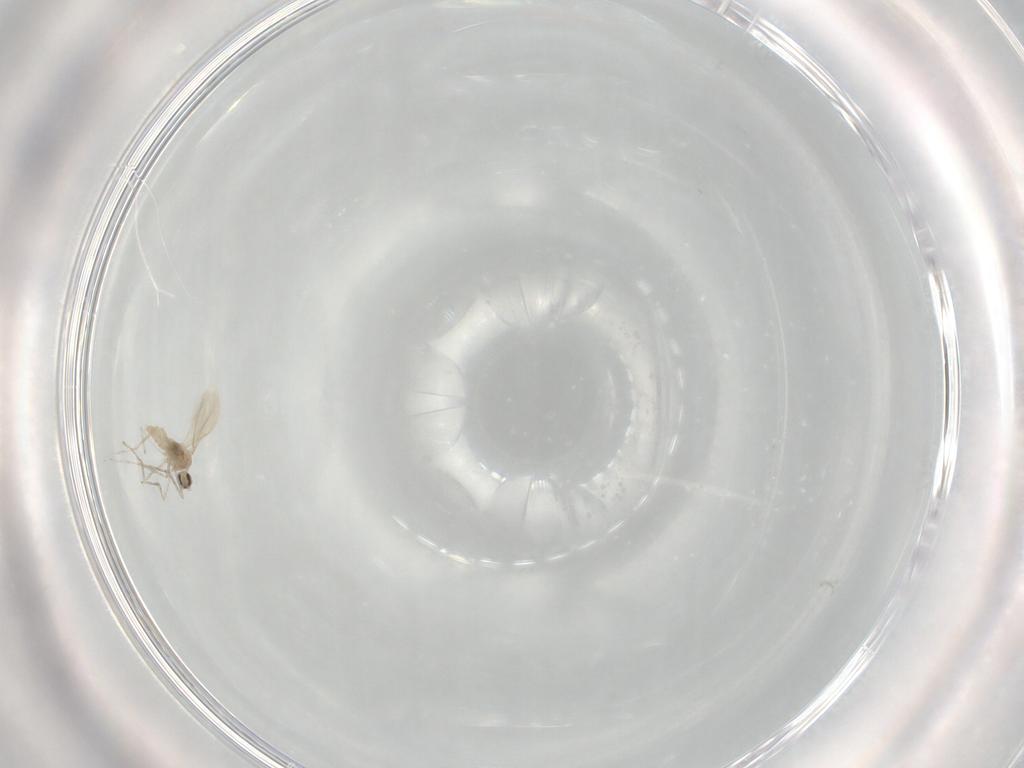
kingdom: Animalia
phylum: Arthropoda
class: Insecta
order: Diptera
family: Cecidomyiidae
